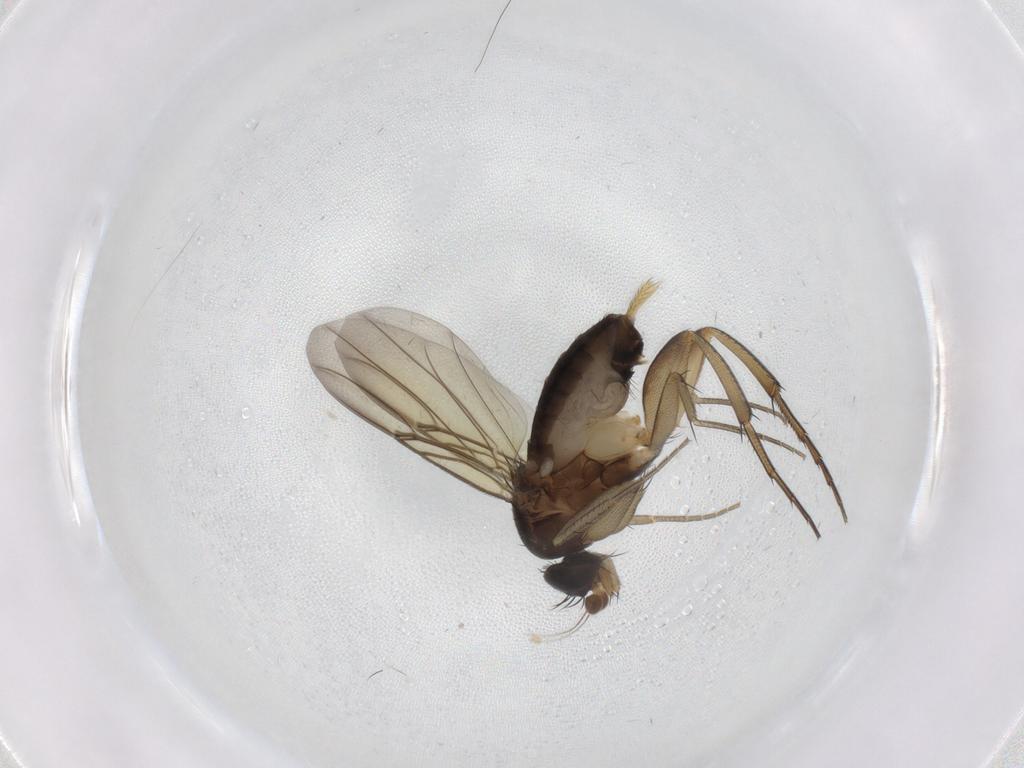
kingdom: Animalia
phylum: Arthropoda
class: Insecta
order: Diptera
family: Phoridae
